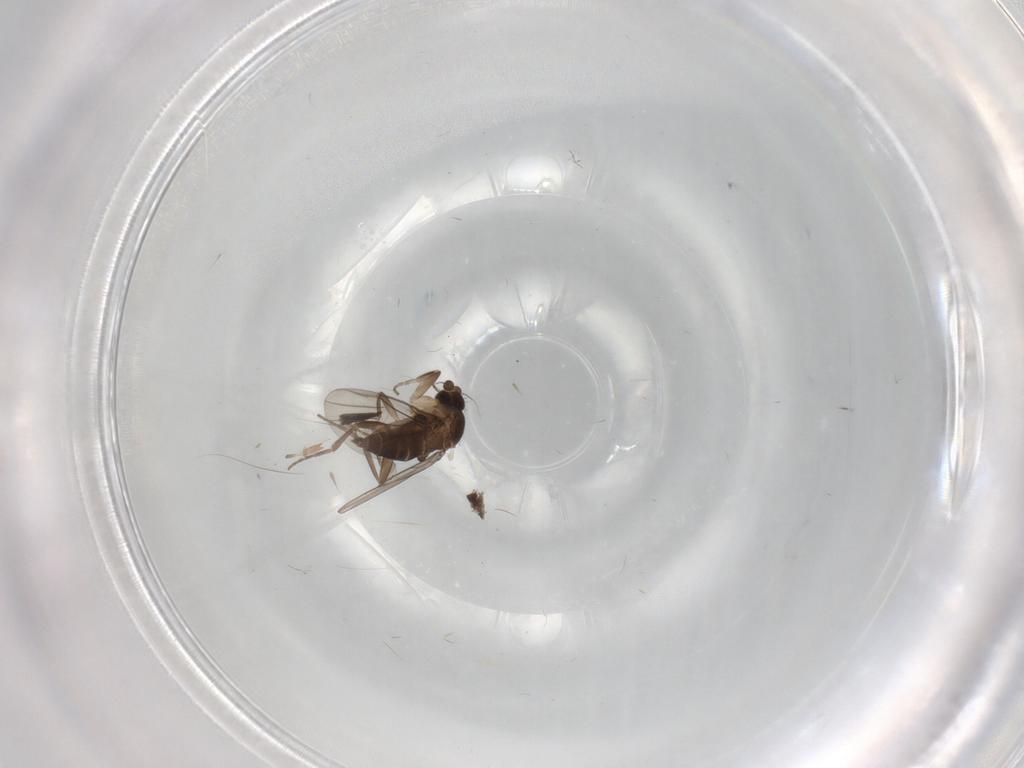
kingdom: Animalia
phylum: Arthropoda
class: Insecta
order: Diptera
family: Phoridae
